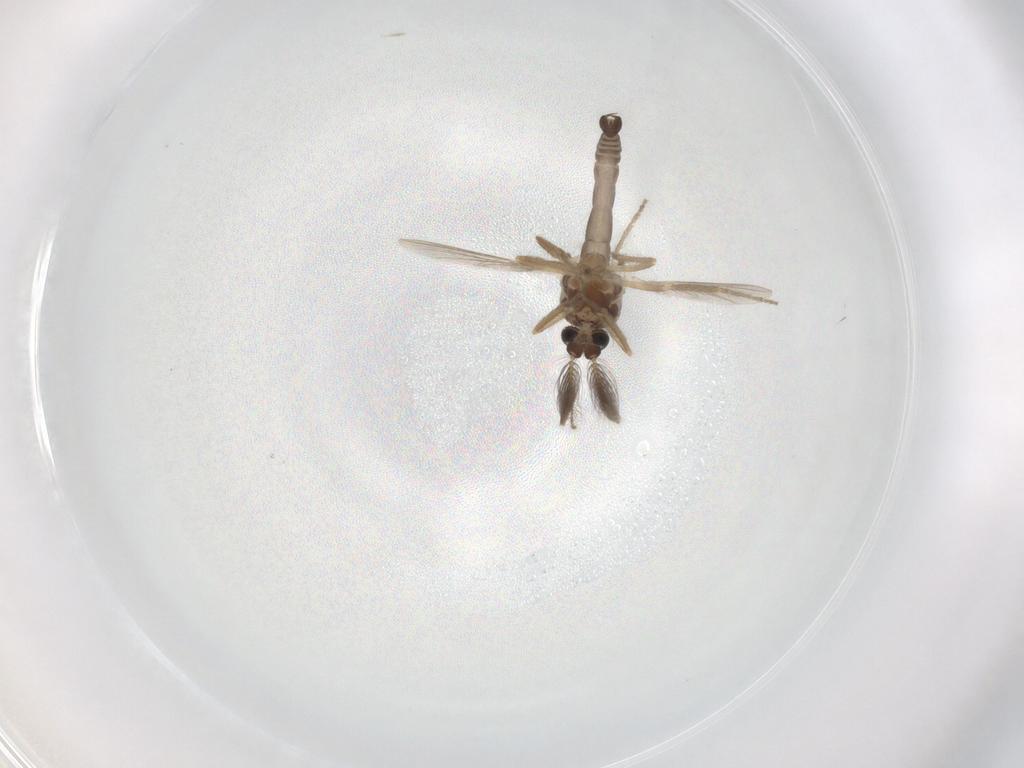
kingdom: Animalia
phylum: Arthropoda
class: Insecta
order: Diptera
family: Ceratopogonidae
